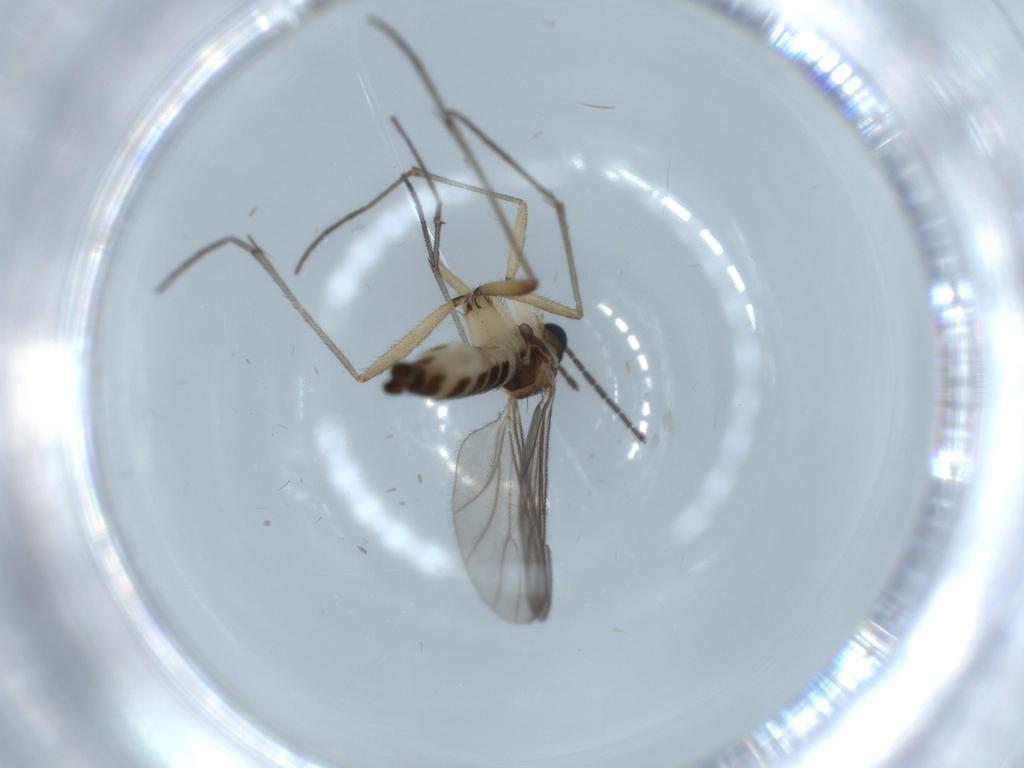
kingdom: Animalia
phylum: Arthropoda
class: Insecta
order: Diptera
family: Sciaridae
